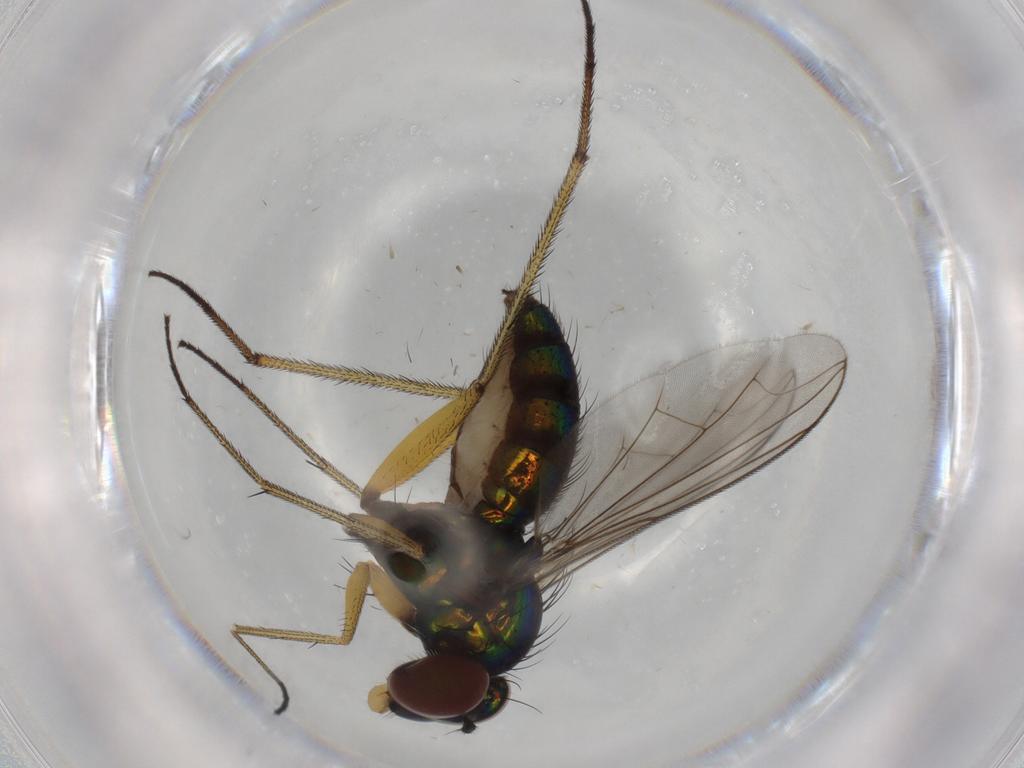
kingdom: Animalia
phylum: Arthropoda
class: Insecta
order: Diptera
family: Dolichopodidae
